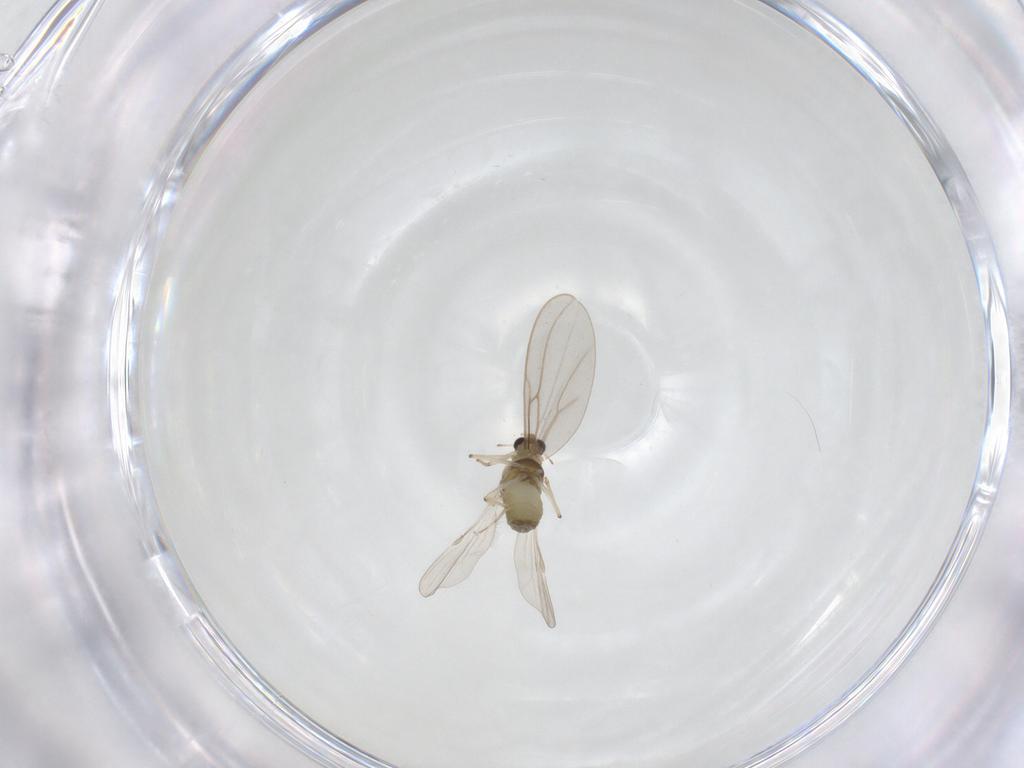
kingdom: Animalia
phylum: Arthropoda
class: Insecta
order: Diptera
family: Chironomidae
